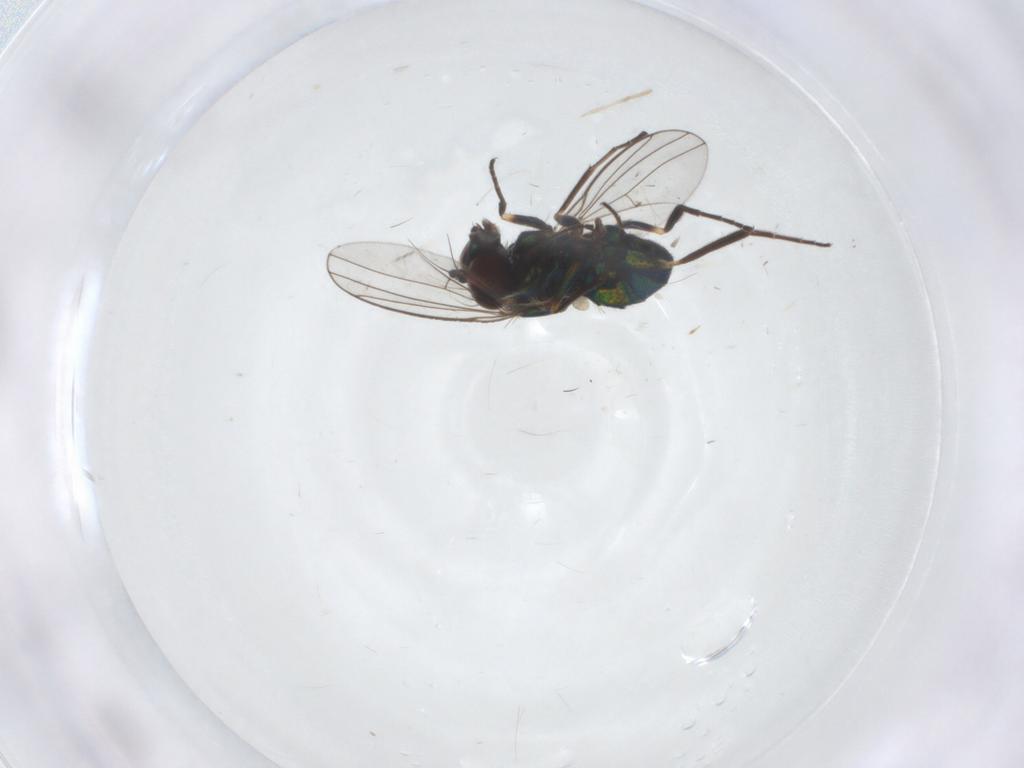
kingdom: Animalia
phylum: Arthropoda
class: Insecta
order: Diptera
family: Dolichopodidae
